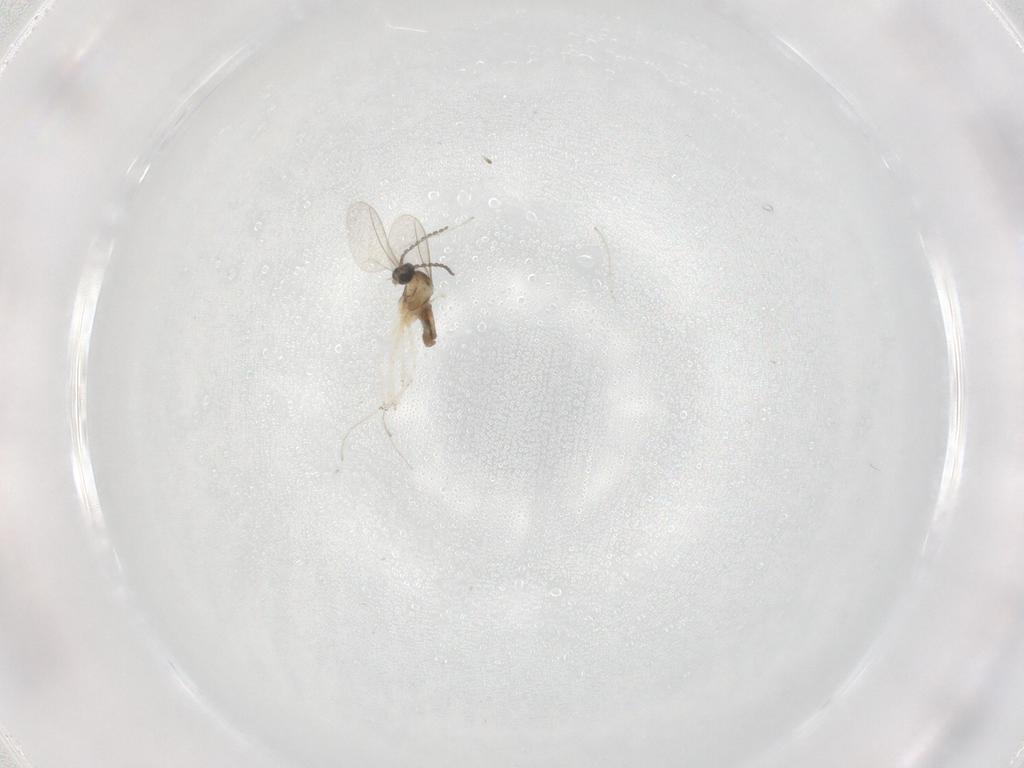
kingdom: Animalia
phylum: Arthropoda
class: Insecta
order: Diptera
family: Cecidomyiidae
